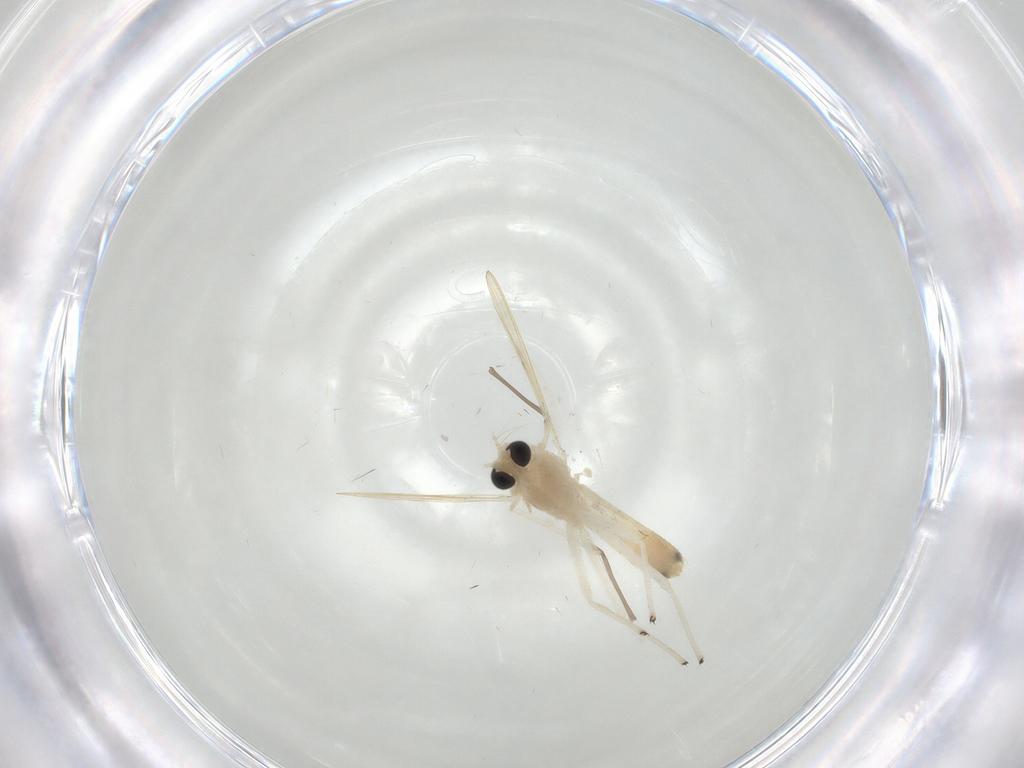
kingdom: Animalia
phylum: Arthropoda
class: Insecta
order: Diptera
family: Chironomidae
